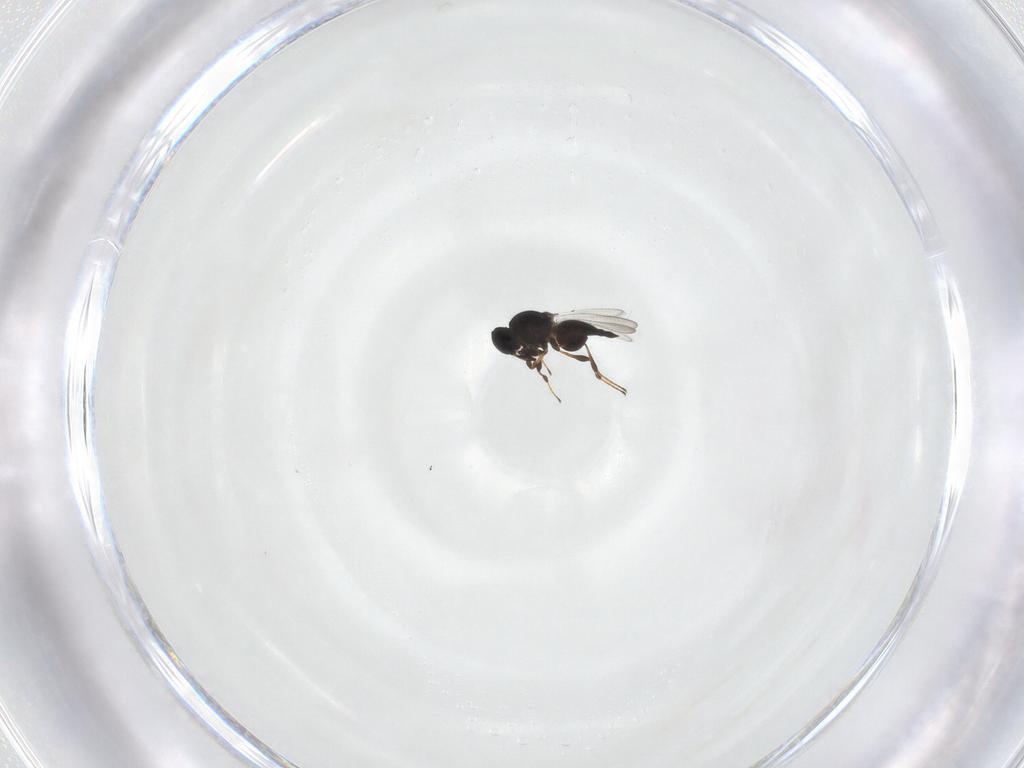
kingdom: Animalia
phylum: Arthropoda
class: Insecta
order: Hymenoptera
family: Platygastridae
